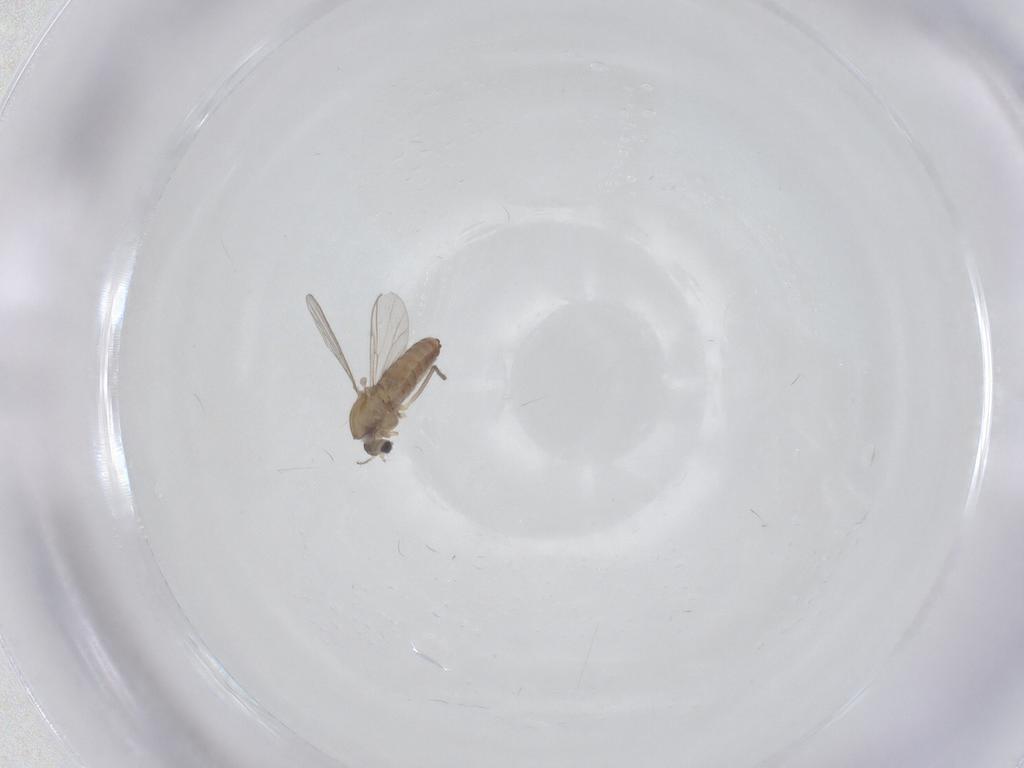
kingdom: Animalia
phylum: Arthropoda
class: Insecta
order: Diptera
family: Chironomidae
